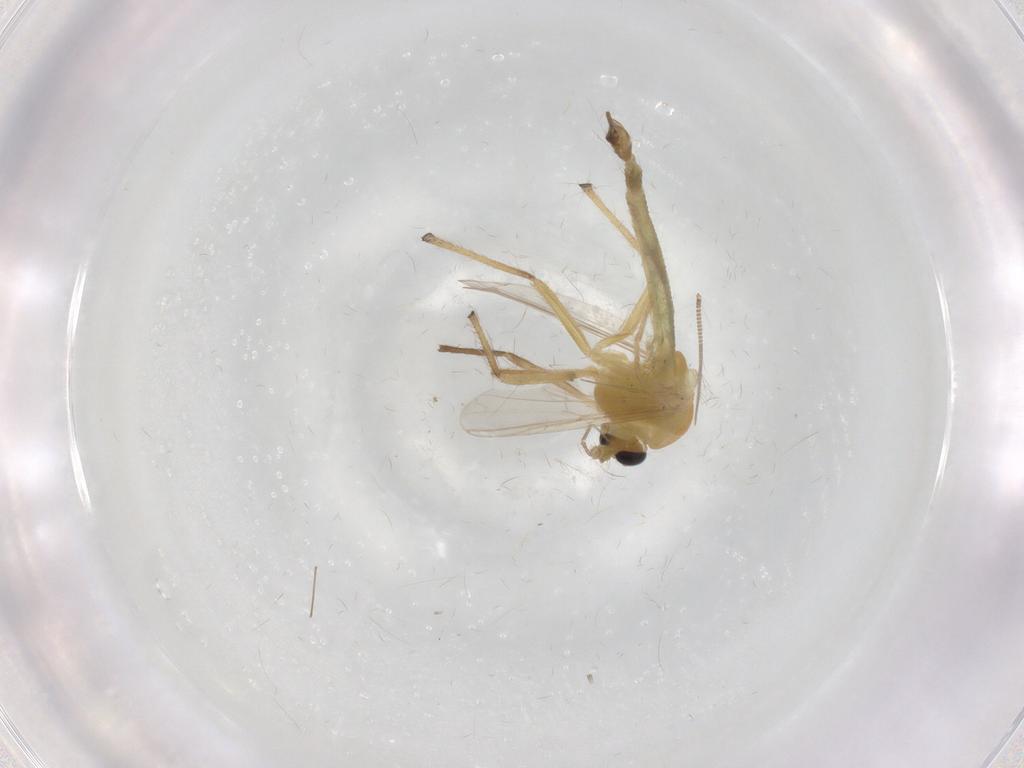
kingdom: Animalia
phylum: Arthropoda
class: Insecta
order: Diptera
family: Chironomidae
